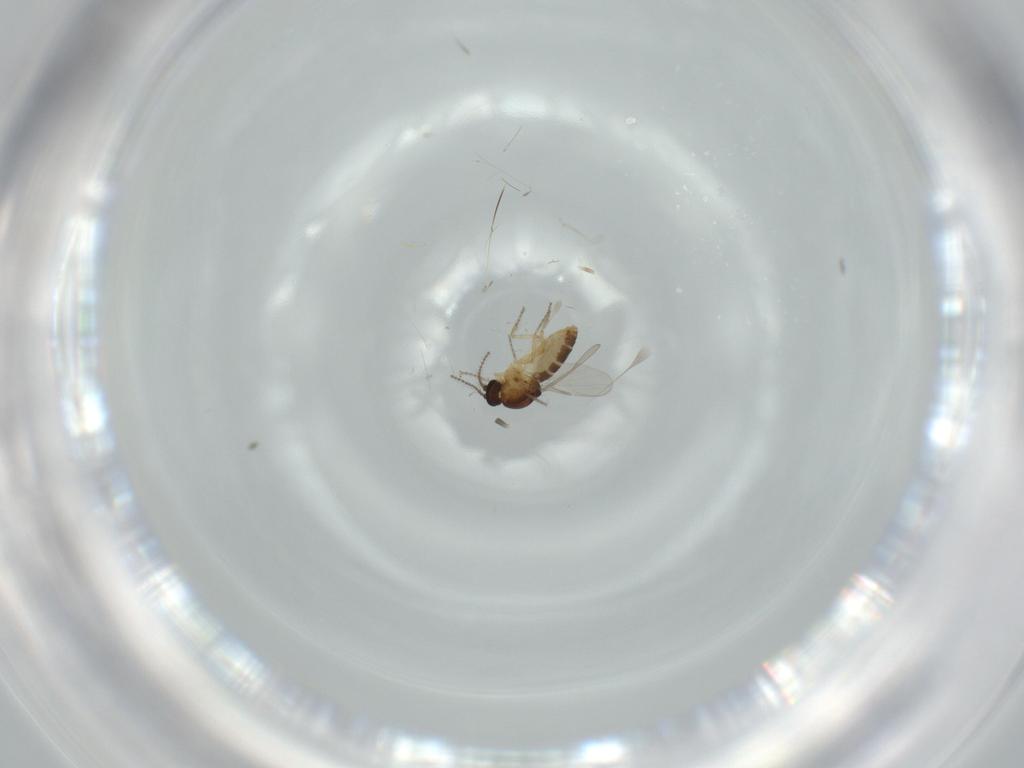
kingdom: Animalia
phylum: Arthropoda
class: Insecta
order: Diptera
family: Ceratopogonidae
